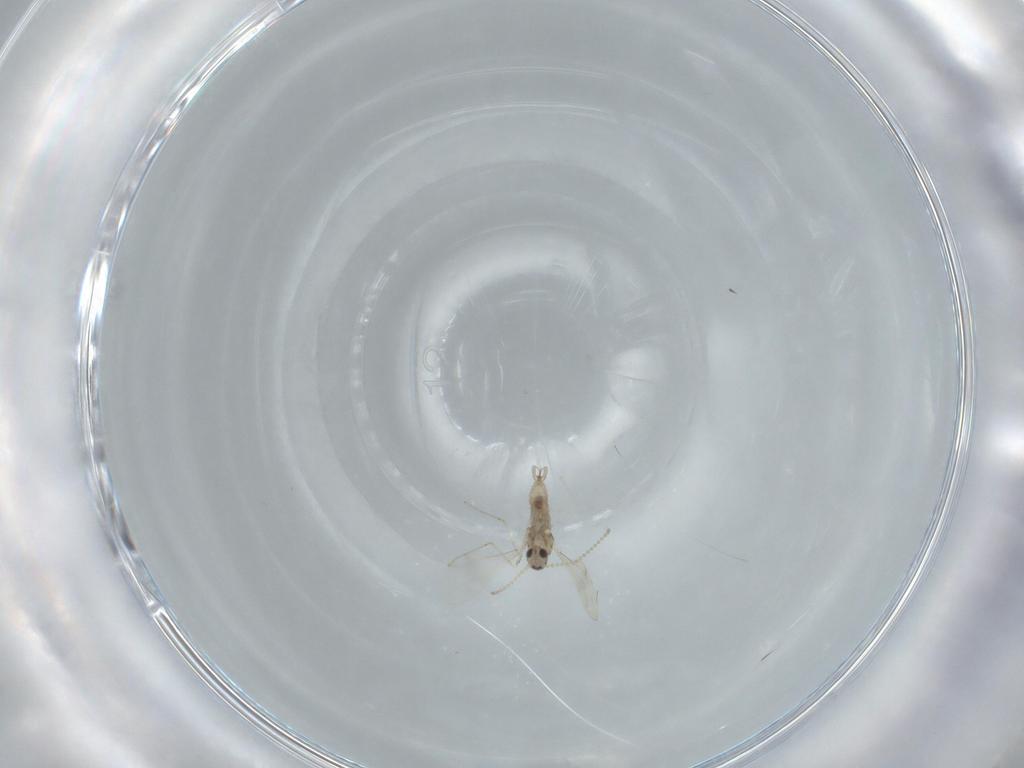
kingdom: Animalia
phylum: Arthropoda
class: Insecta
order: Diptera
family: Cecidomyiidae
